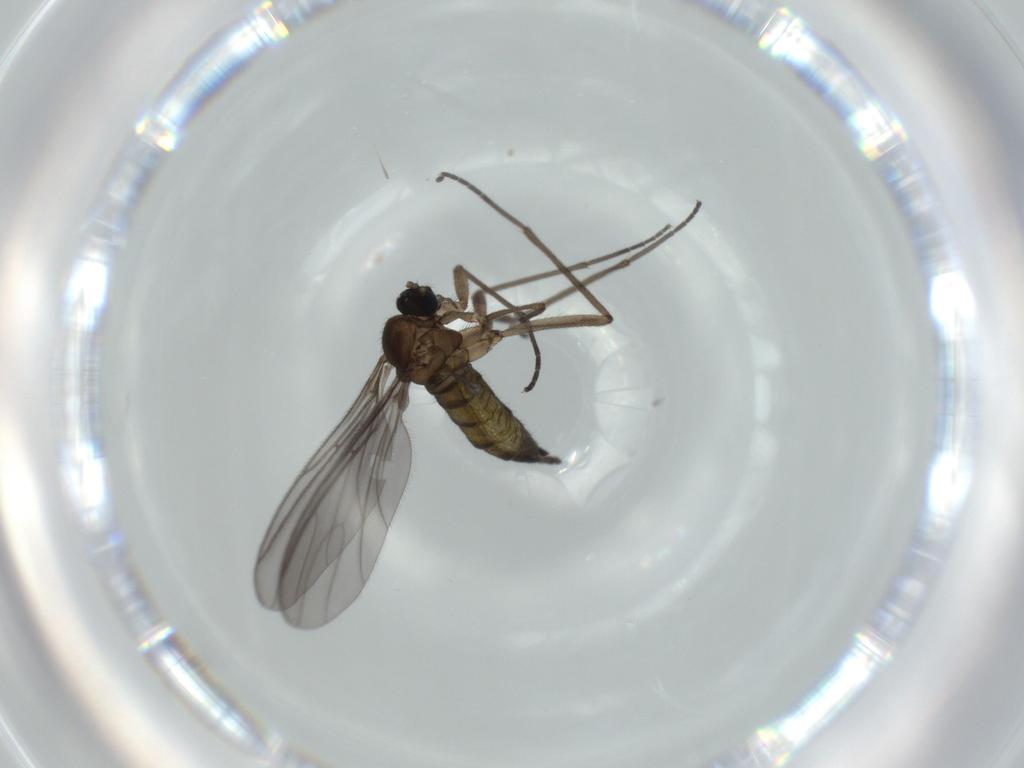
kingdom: Animalia
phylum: Arthropoda
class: Insecta
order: Diptera
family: Sciaridae
